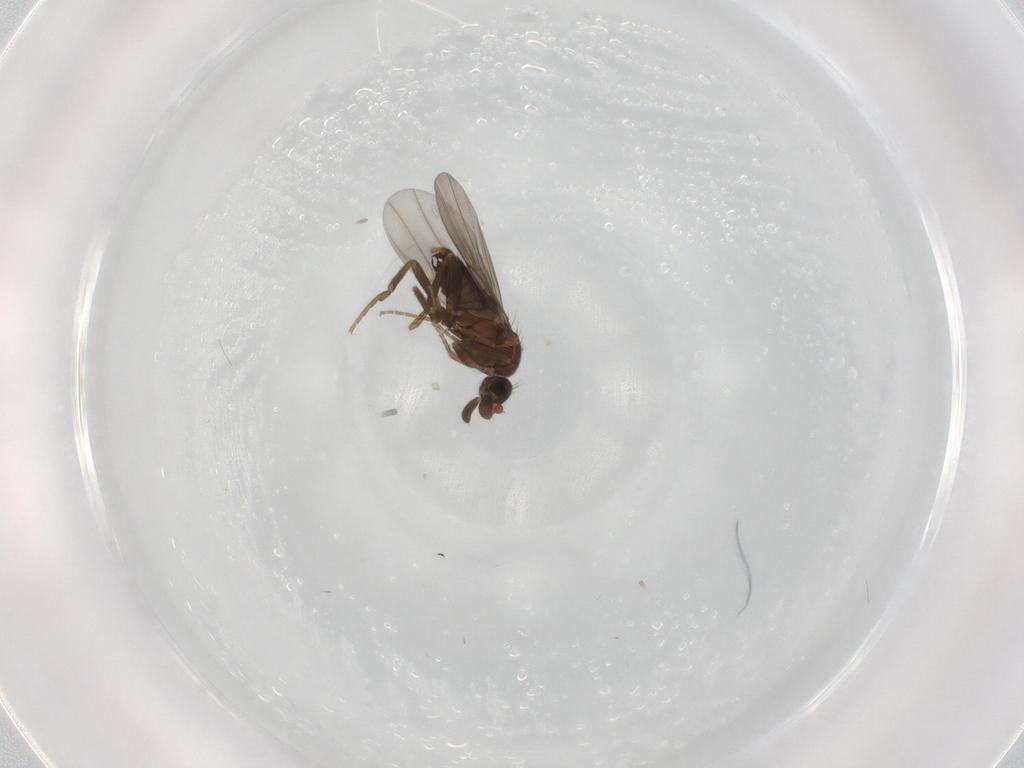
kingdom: Animalia
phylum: Arthropoda
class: Insecta
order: Diptera
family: Phoridae
